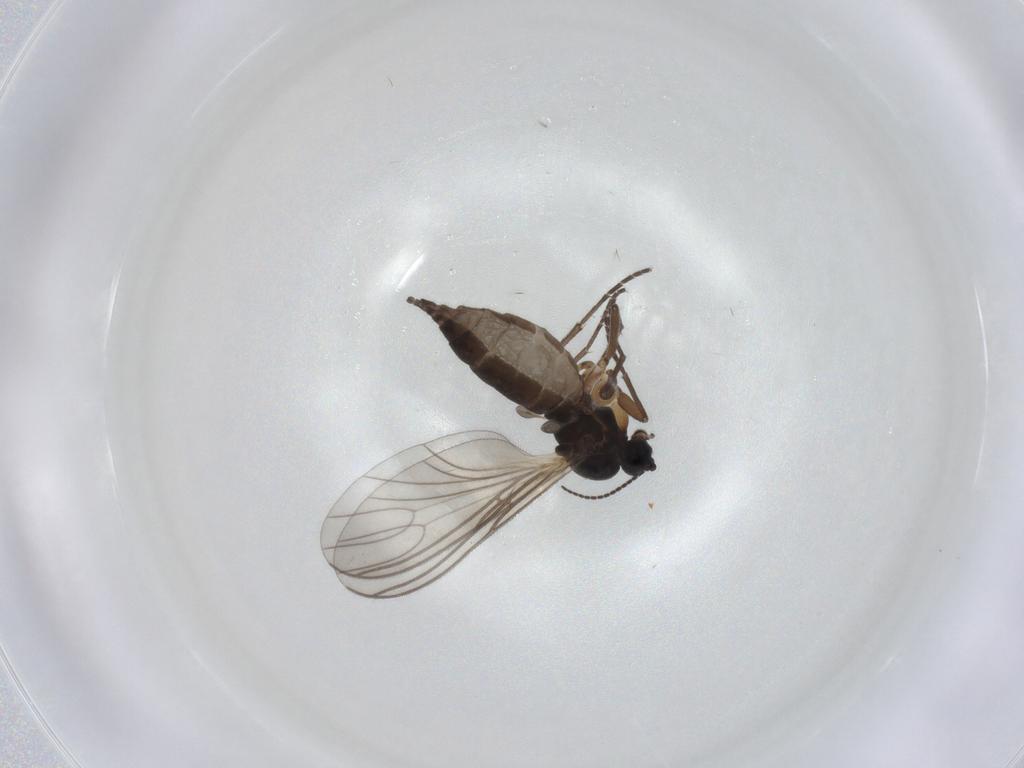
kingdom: Animalia
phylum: Arthropoda
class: Insecta
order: Diptera
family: Sciaridae
